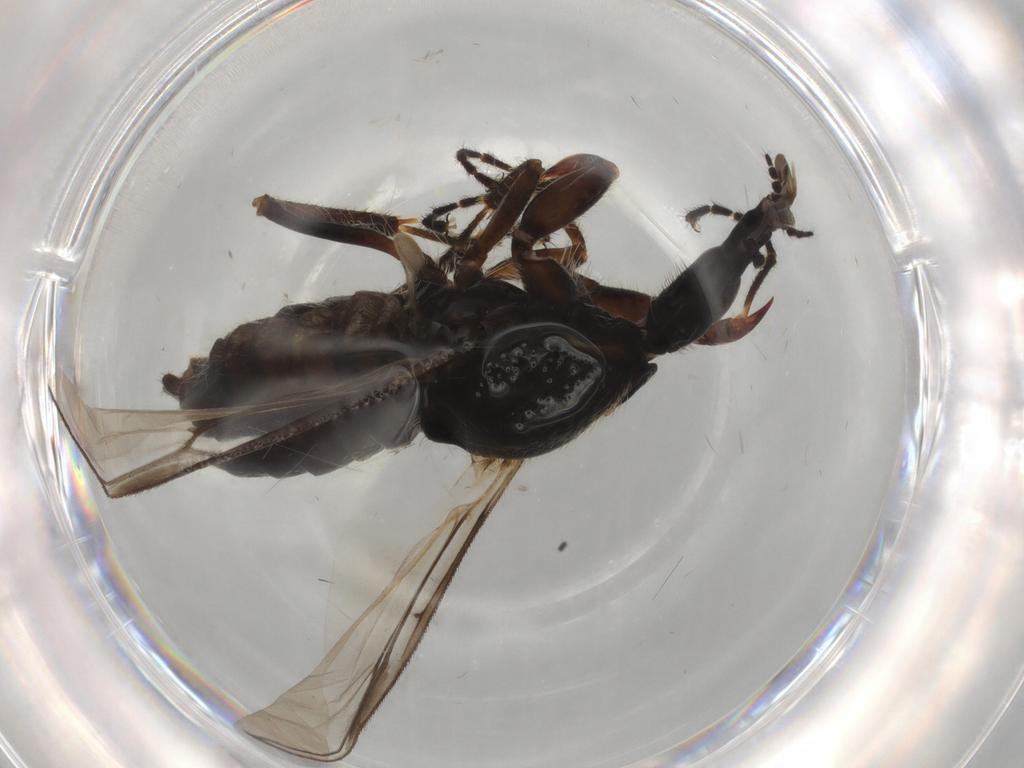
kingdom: Animalia
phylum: Arthropoda
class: Insecta
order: Diptera
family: Bibionidae
